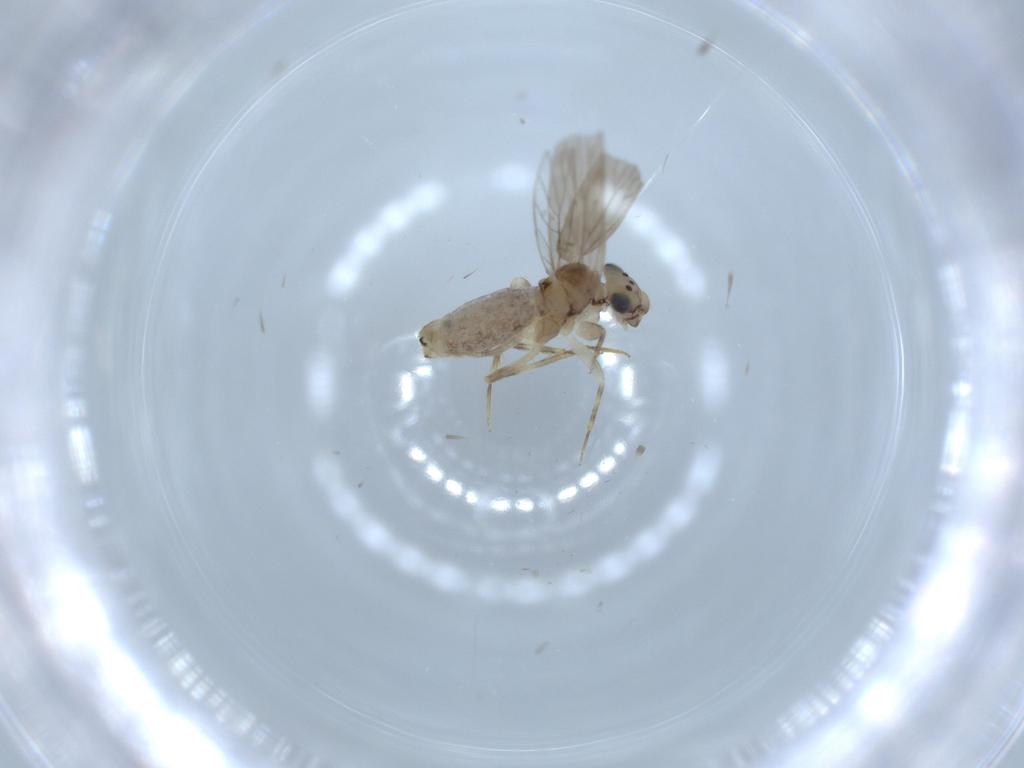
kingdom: Animalia
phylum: Arthropoda
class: Insecta
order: Psocodea
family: Lepidopsocidae
